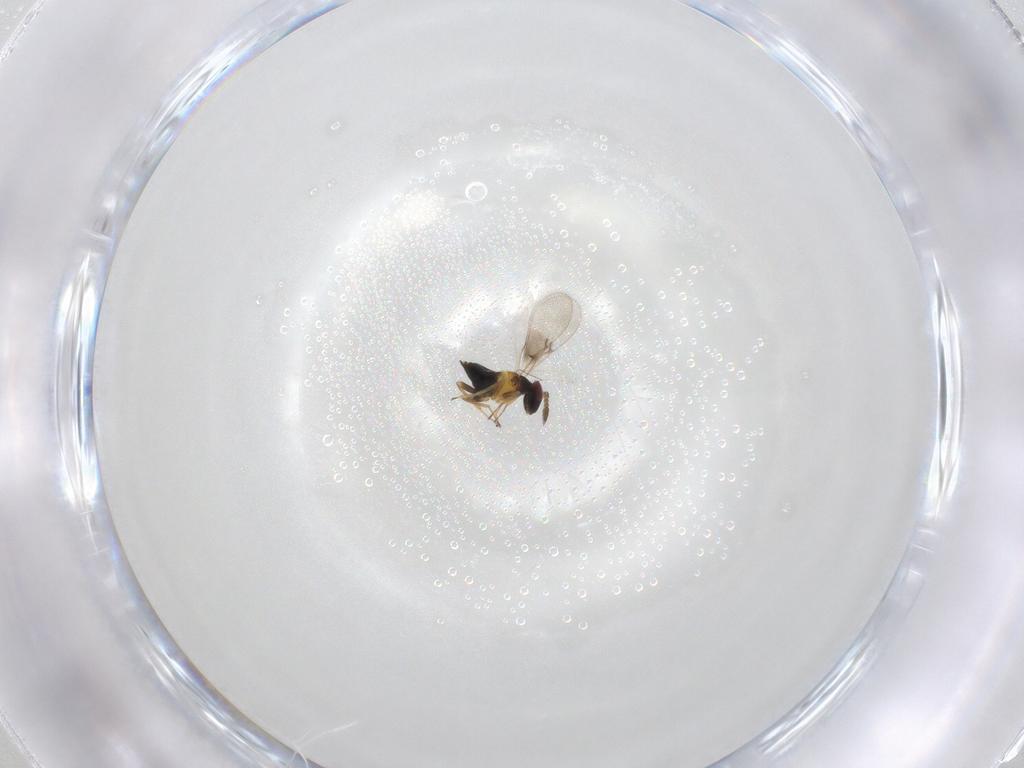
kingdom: Animalia
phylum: Arthropoda
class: Insecta
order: Hymenoptera
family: Trichogrammatidae
